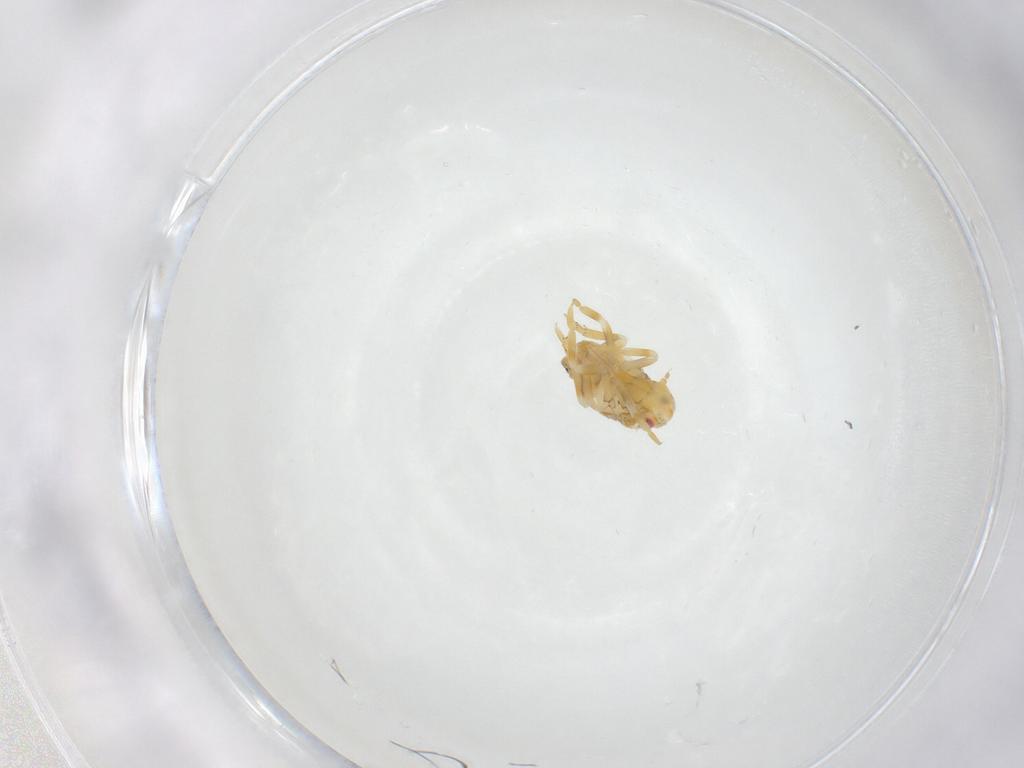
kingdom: Animalia
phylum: Arthropoda
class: Insecta
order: Hemiptera
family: Flatidae
